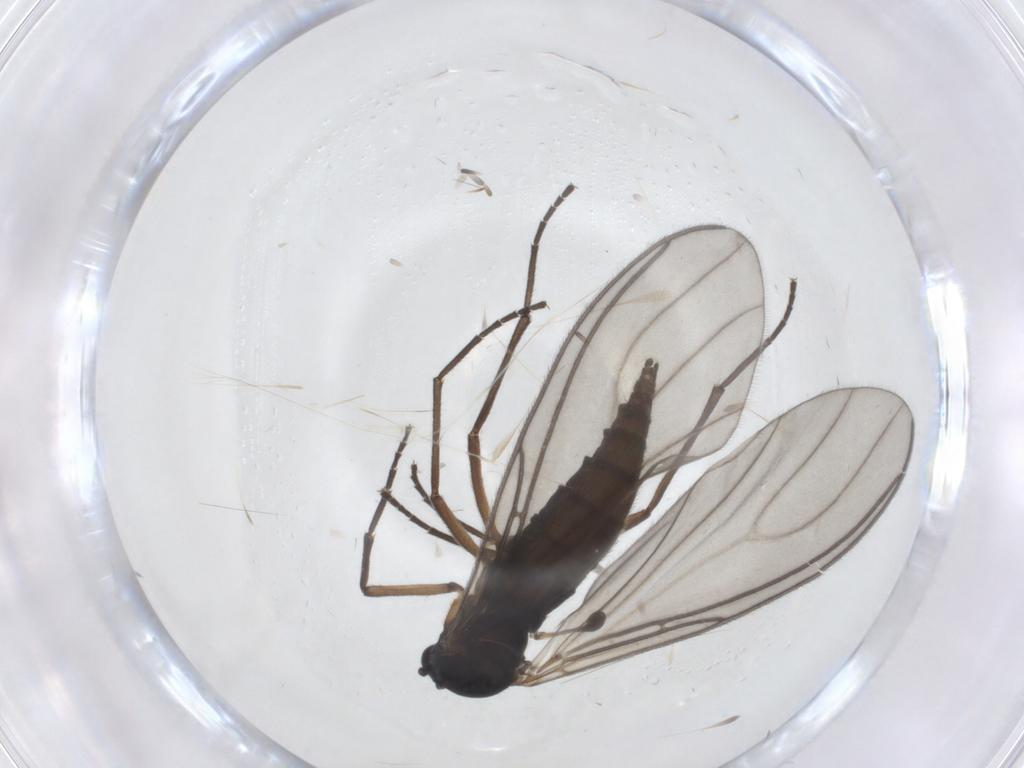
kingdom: Animalia
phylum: Arthropoda
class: Insecta
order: Diptera
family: Sciaridae
